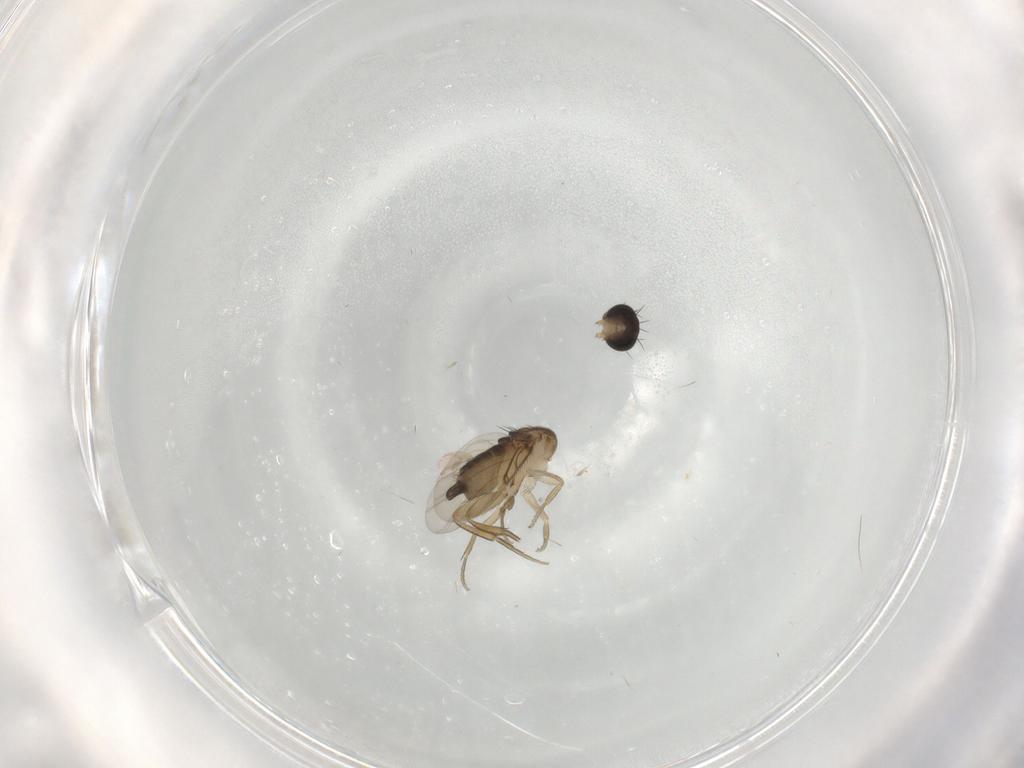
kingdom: Animalia
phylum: Arthropoda
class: Insecta
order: Diptera
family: Phoridae
